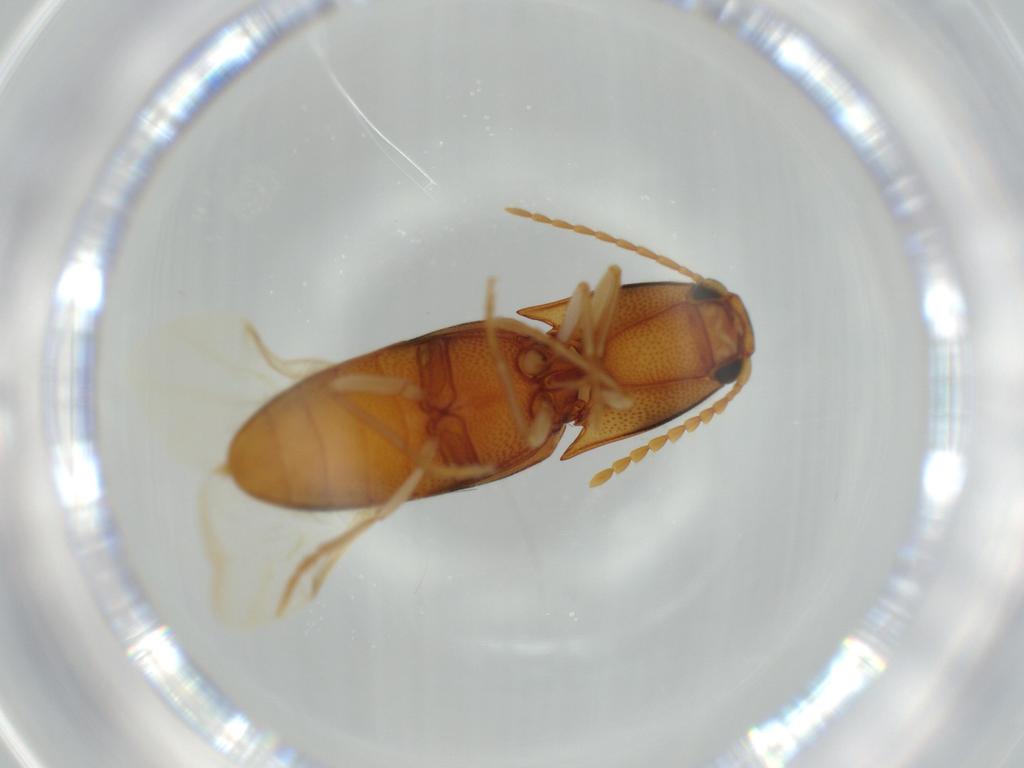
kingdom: Animalia
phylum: Arthropoda
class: Insecta
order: Coleoptera
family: Elateridae
